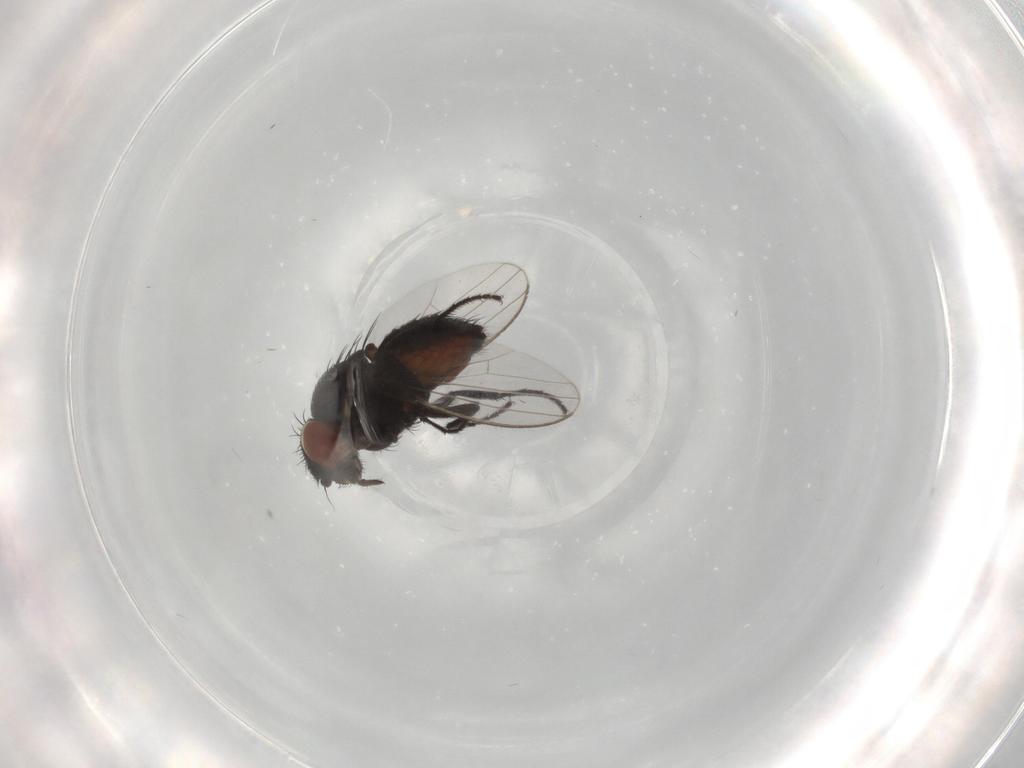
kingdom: Animalia
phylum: Arthropoda
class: Insecta
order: Diptera
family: Milichiidae
